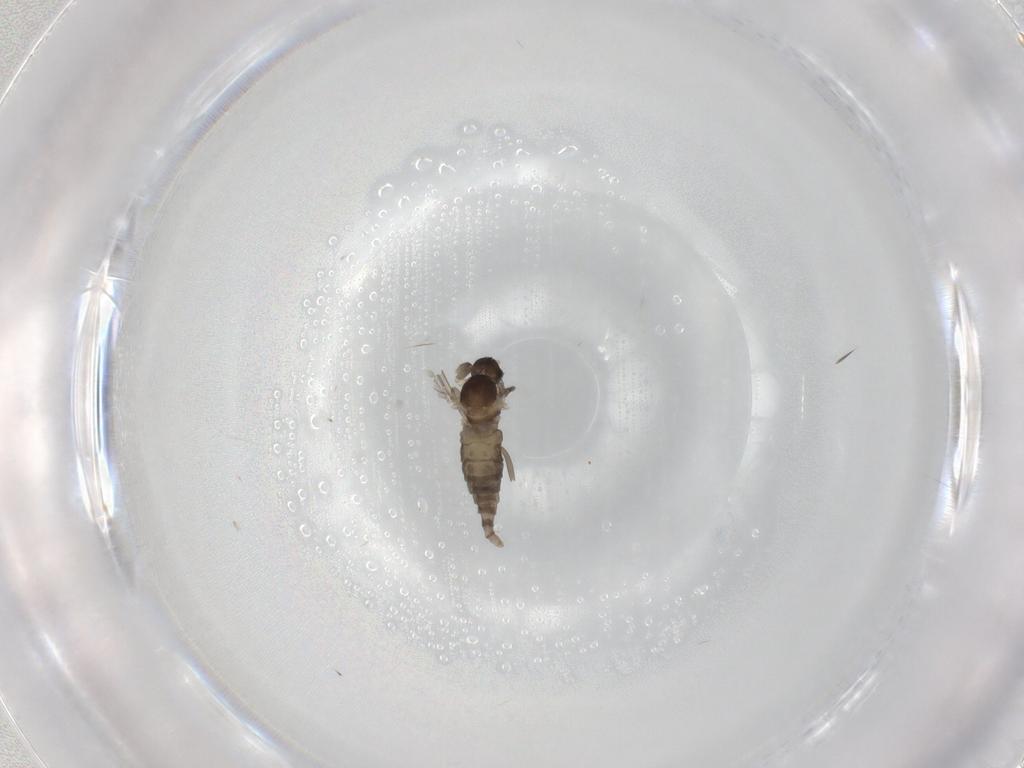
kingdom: Animalia
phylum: Arthropoda
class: Insecta
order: Diptera
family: Cecidomyiidae
